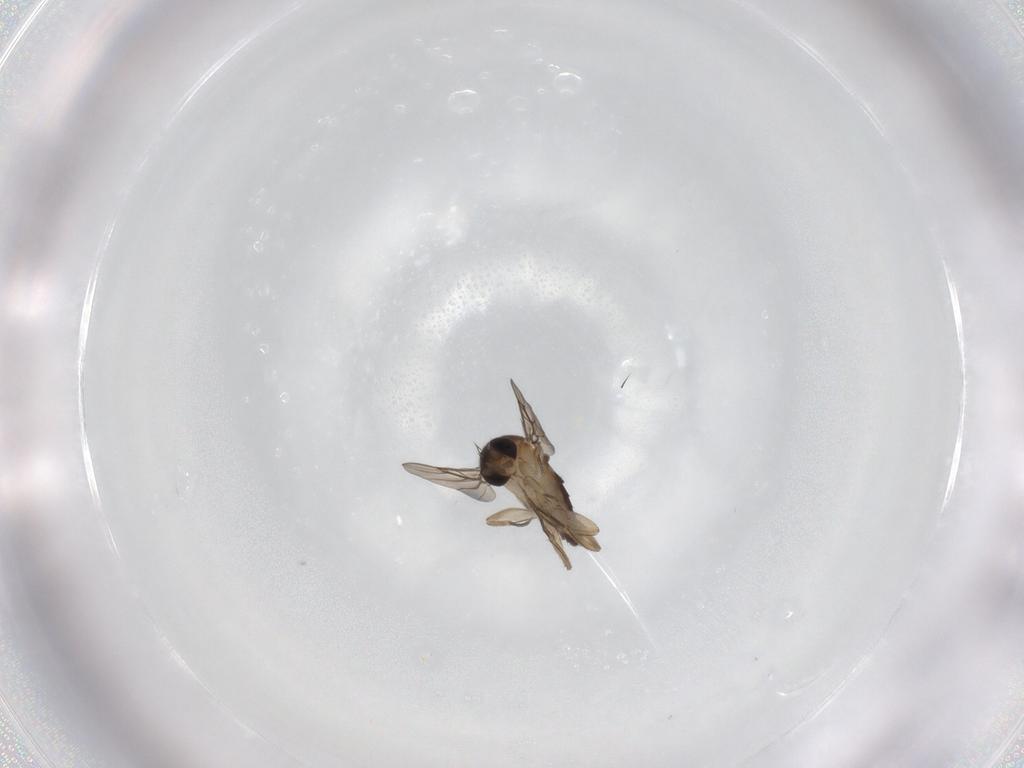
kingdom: Animalia
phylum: Arthropoda
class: Insecta
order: Diptera
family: Phoridae
